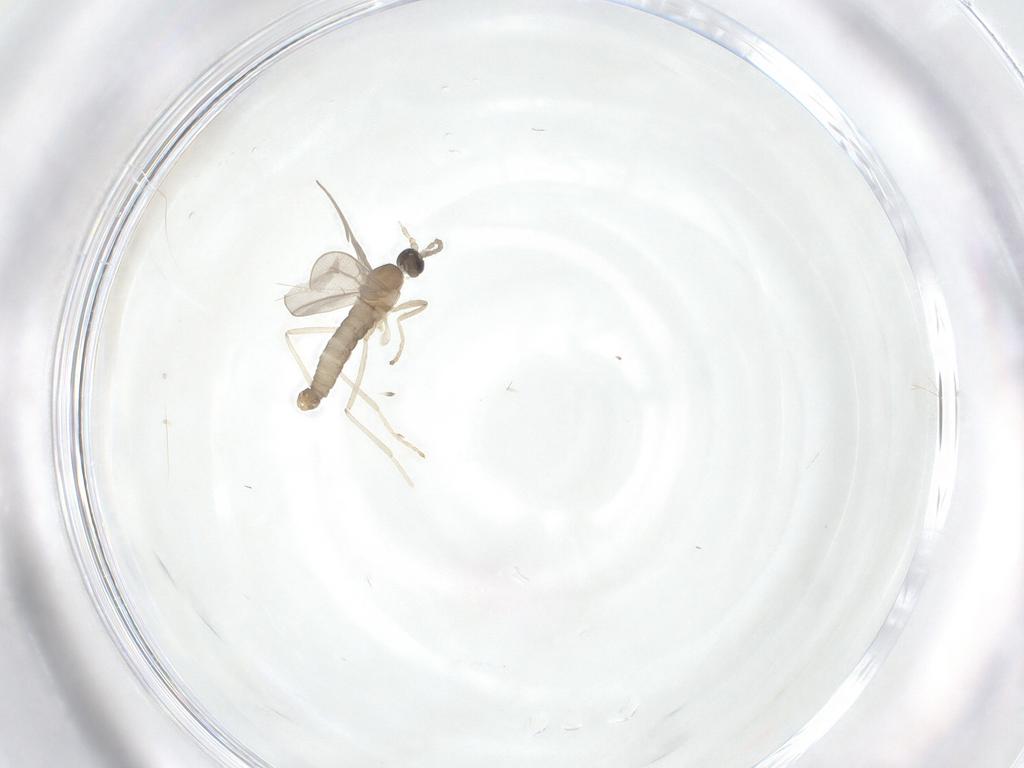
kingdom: Animalia
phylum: Arthropoda
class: Insecta
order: Diptera
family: Cecidomyiidae
